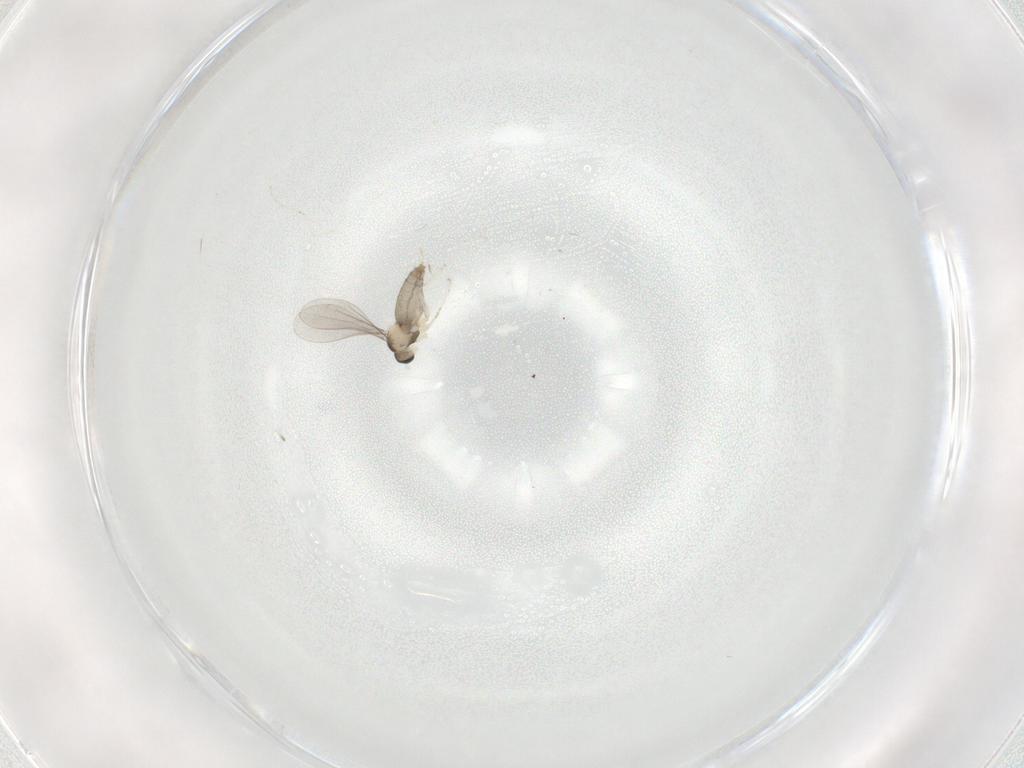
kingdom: Animalia
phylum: Arthropoda
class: Insecta
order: Diptera
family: Cecidomyiidae
